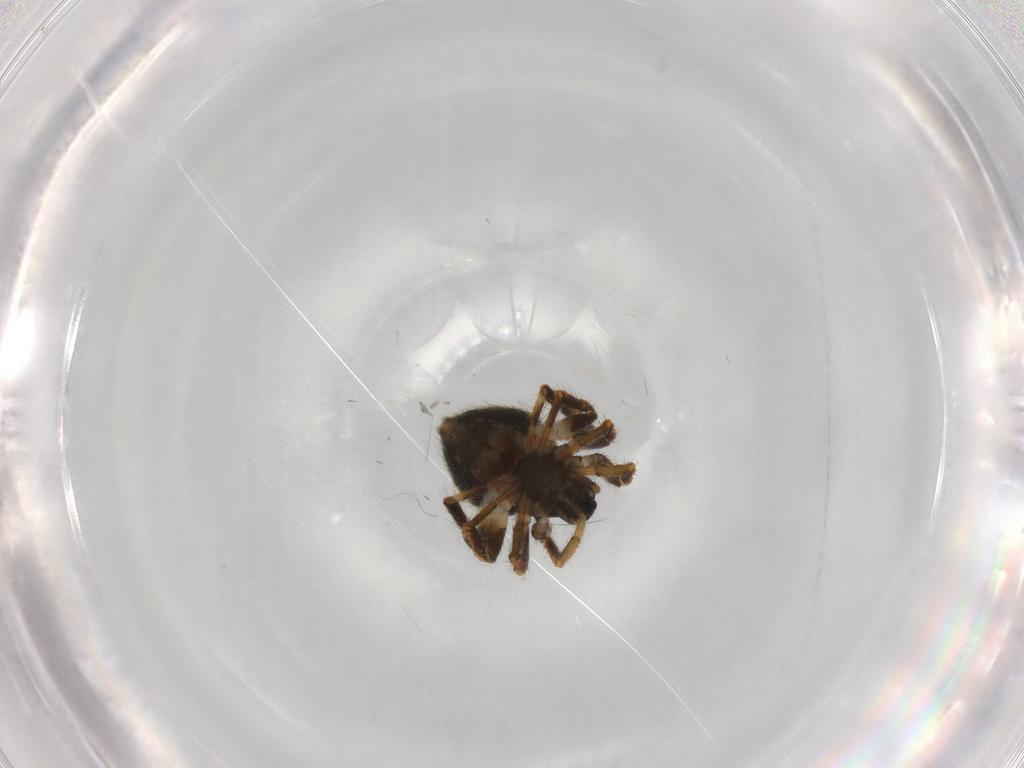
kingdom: Animalia
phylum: Arthropoda
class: Arachnida
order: Araneae
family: Theridiidae
